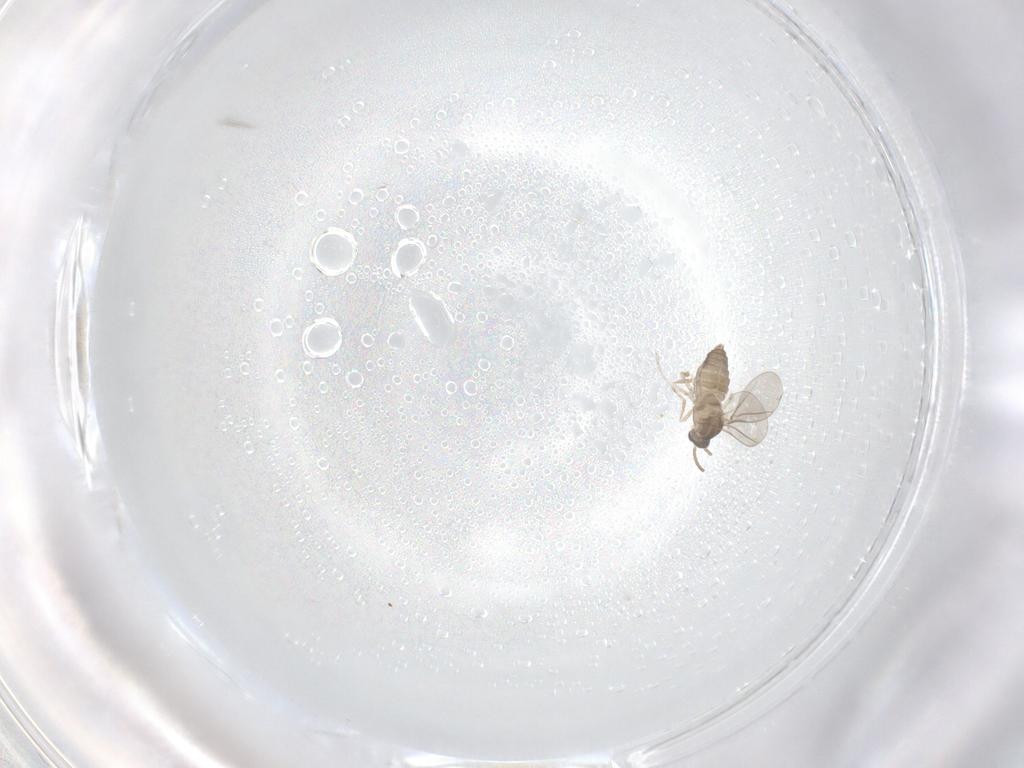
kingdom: Animalia
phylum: Arthropoda
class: Insecta
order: Diptera
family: Cecidomyiidae
